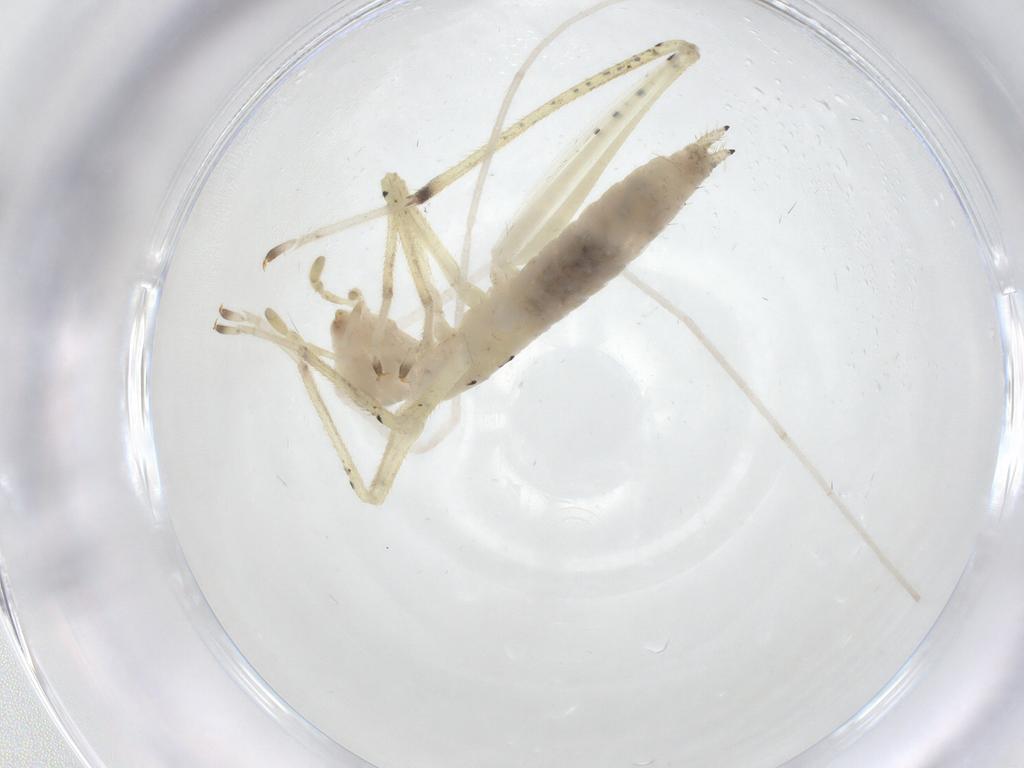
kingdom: Animalia
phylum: Arthropoda
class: Insecta
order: Orthoptera
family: Oecanthidae
